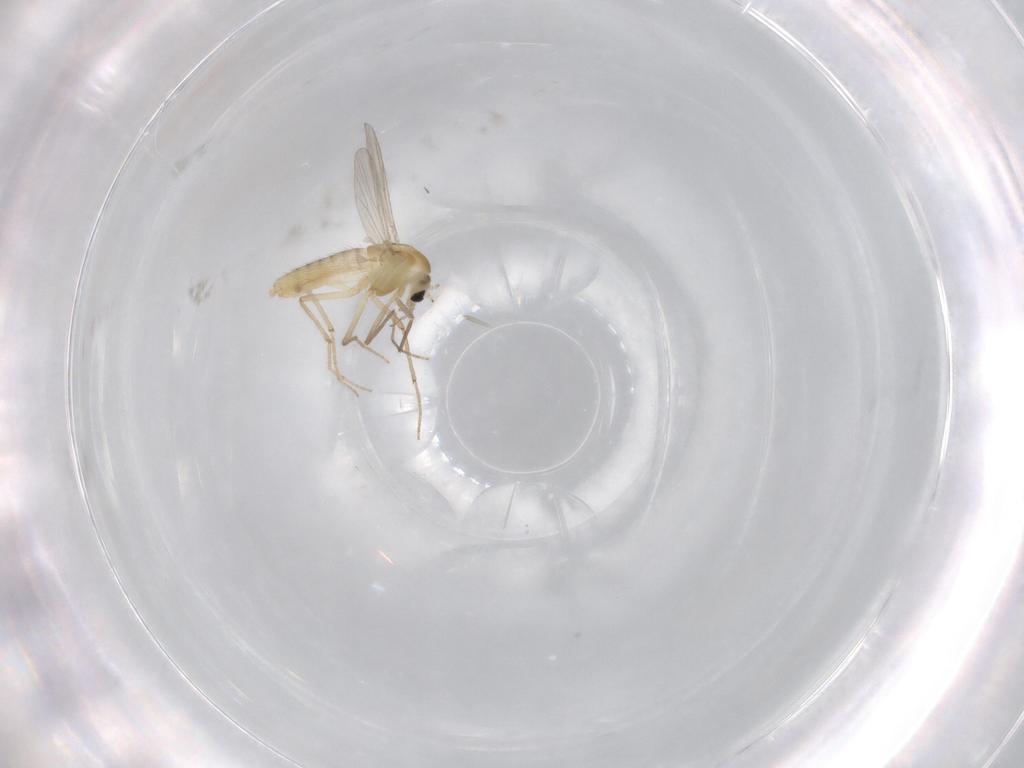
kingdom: Animalia
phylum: Arthropoda
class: Insecta
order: Diptera
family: Chironomidae
